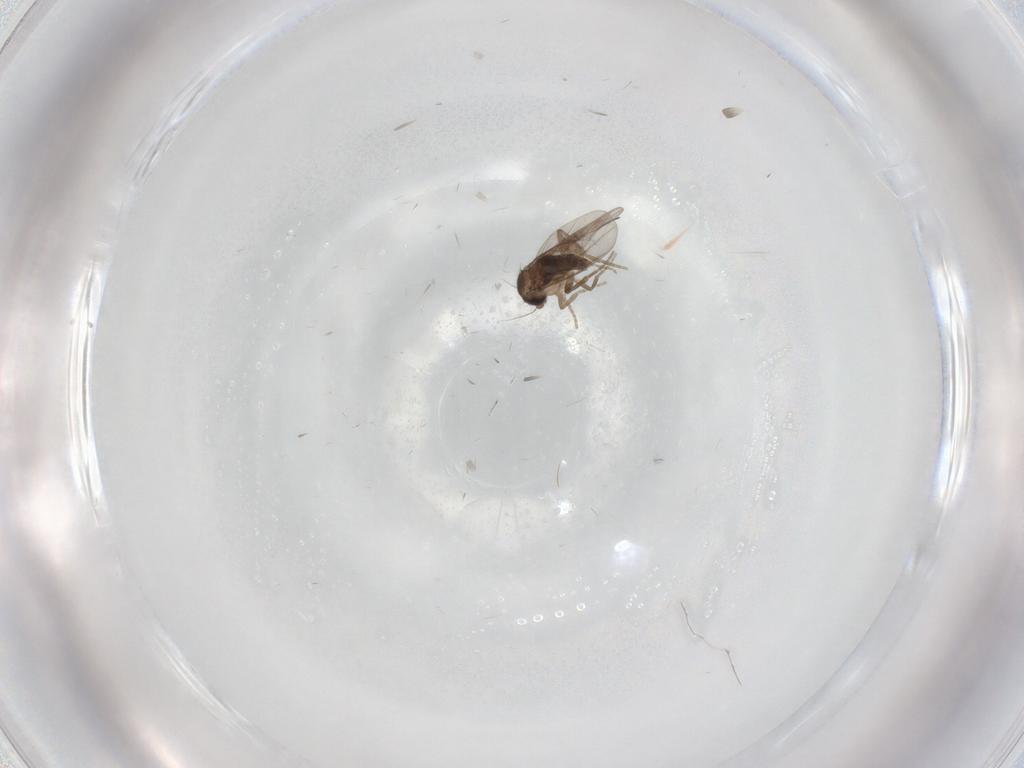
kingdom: Animalia
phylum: Arthropoda
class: Insecta
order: Diptera
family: Phoridae
